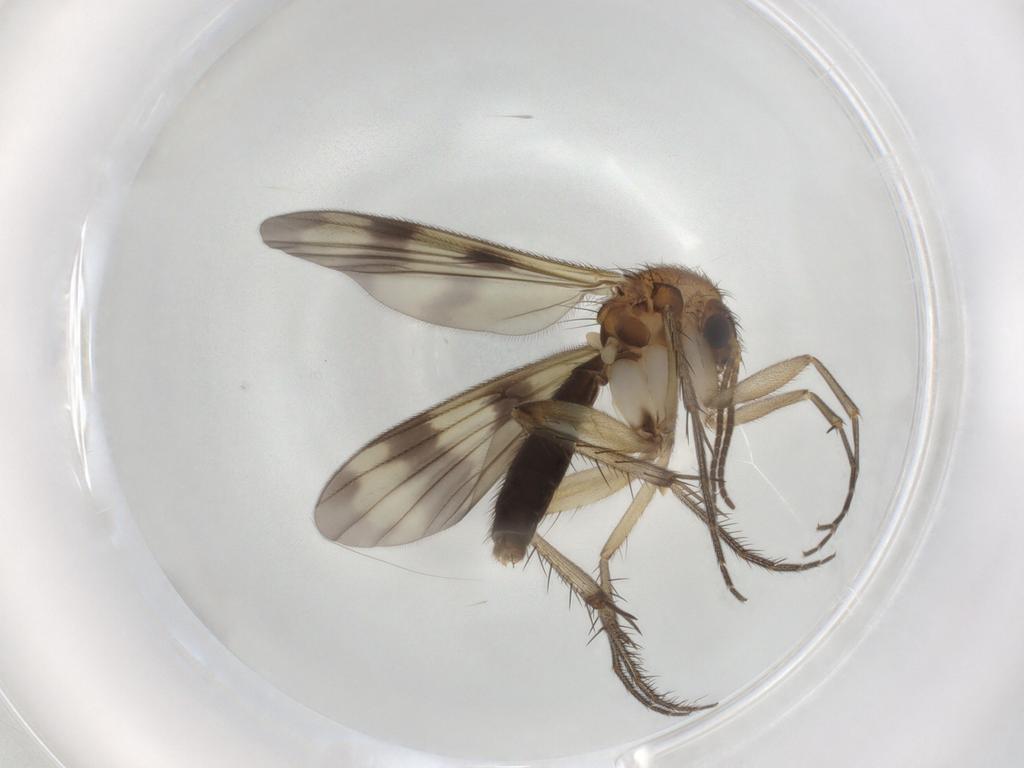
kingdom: Animalia
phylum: Arthropoda
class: Insecta
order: Diptera
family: Mycetophilidae
